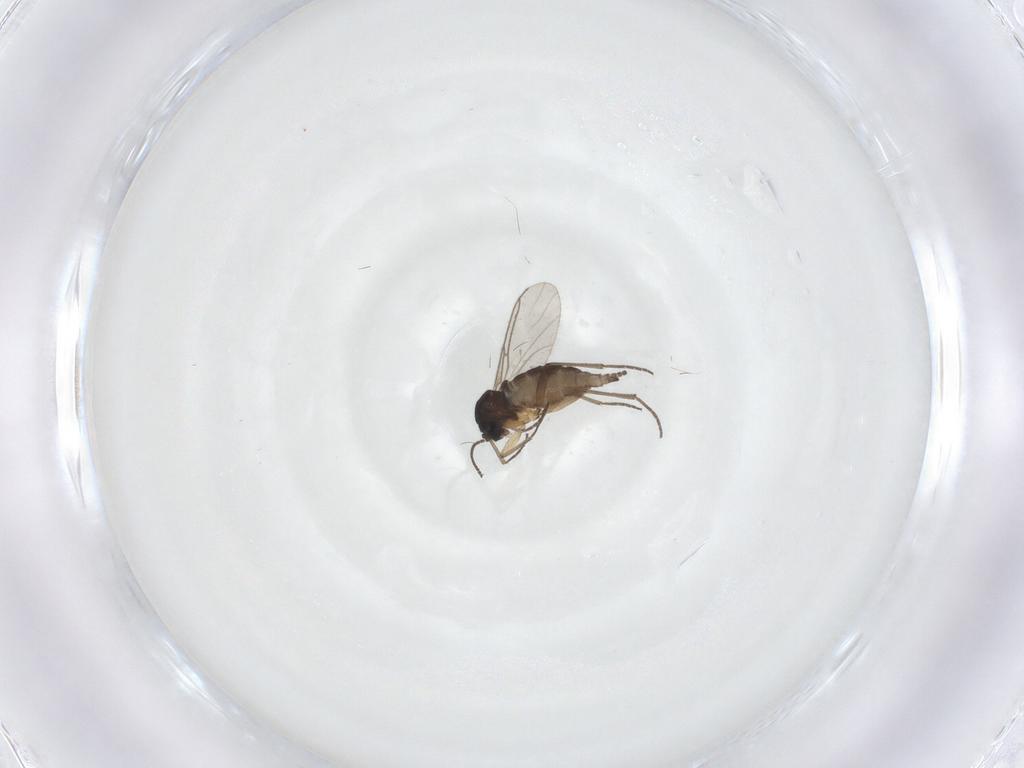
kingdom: Animalia
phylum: Arthropoda
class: Insecta
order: Diptera
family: Sciaridae
